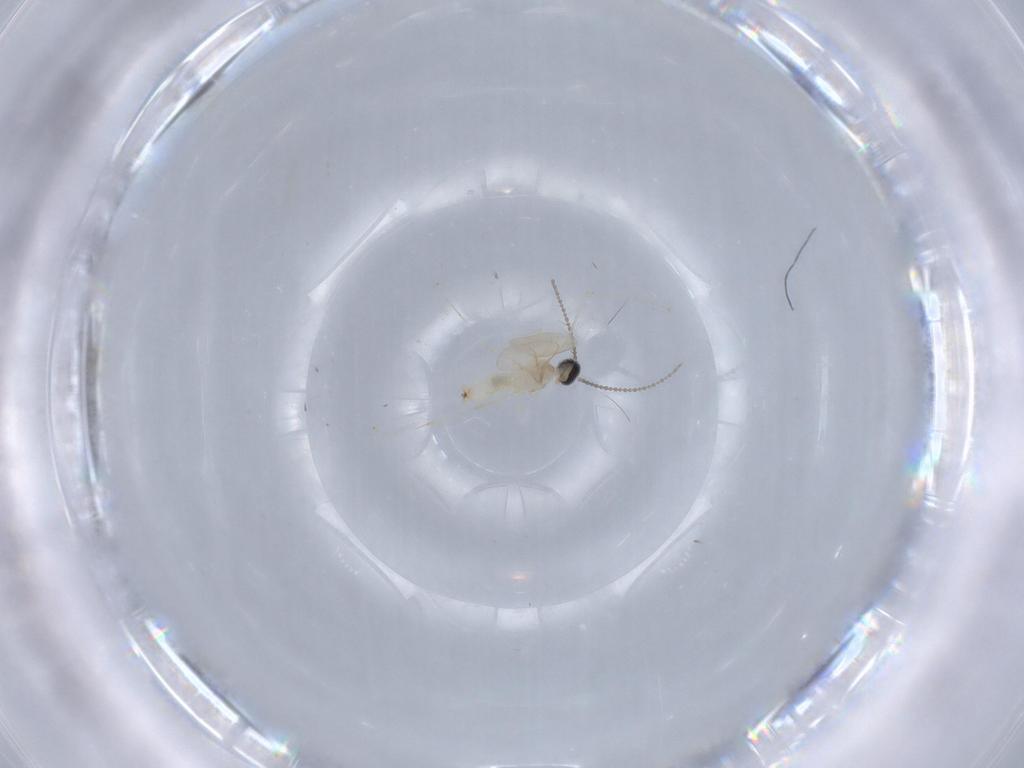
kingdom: Animalia
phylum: Arthropoda
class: Insecta
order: Diptera
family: Cecidomyiidae
